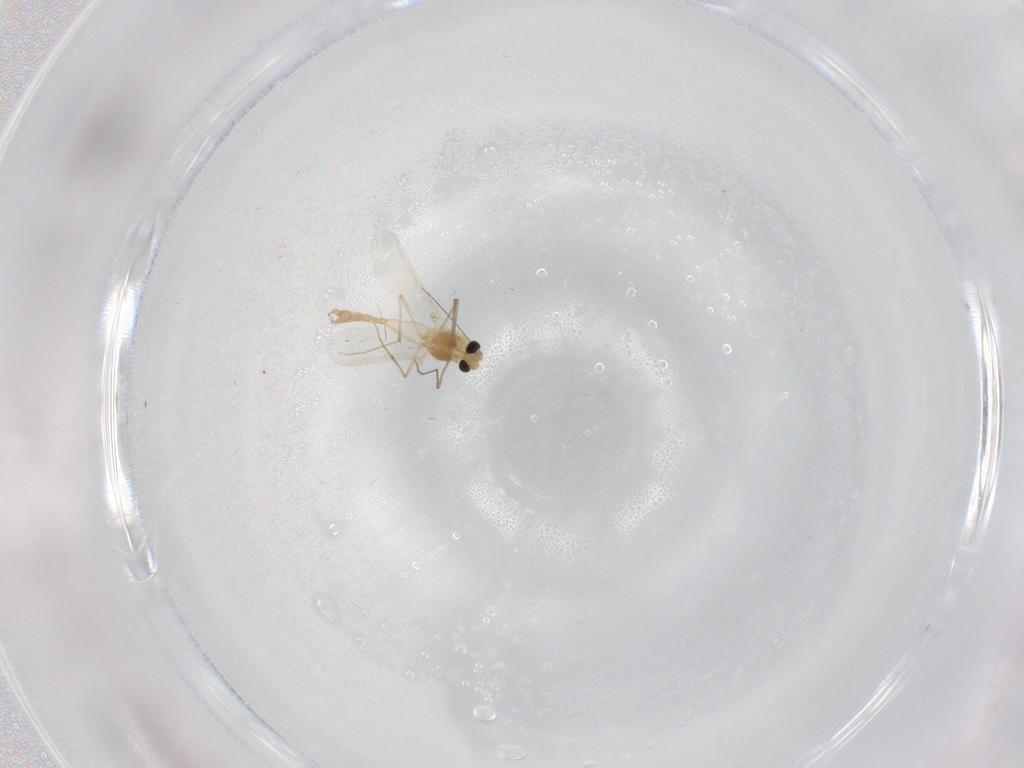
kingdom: Animalia
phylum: Arthropoda
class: Insecta
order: Diptera
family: Chironomidae
